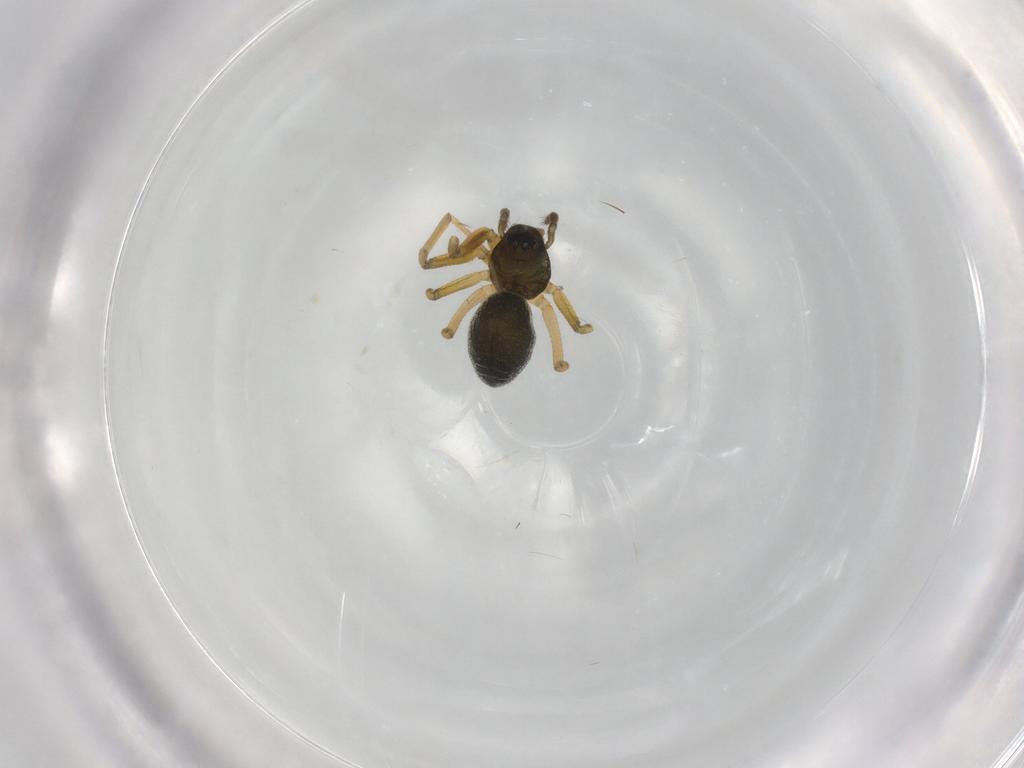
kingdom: Animalia
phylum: Arthropoda
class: Arachnida
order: Araneae
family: Linyphiidae
